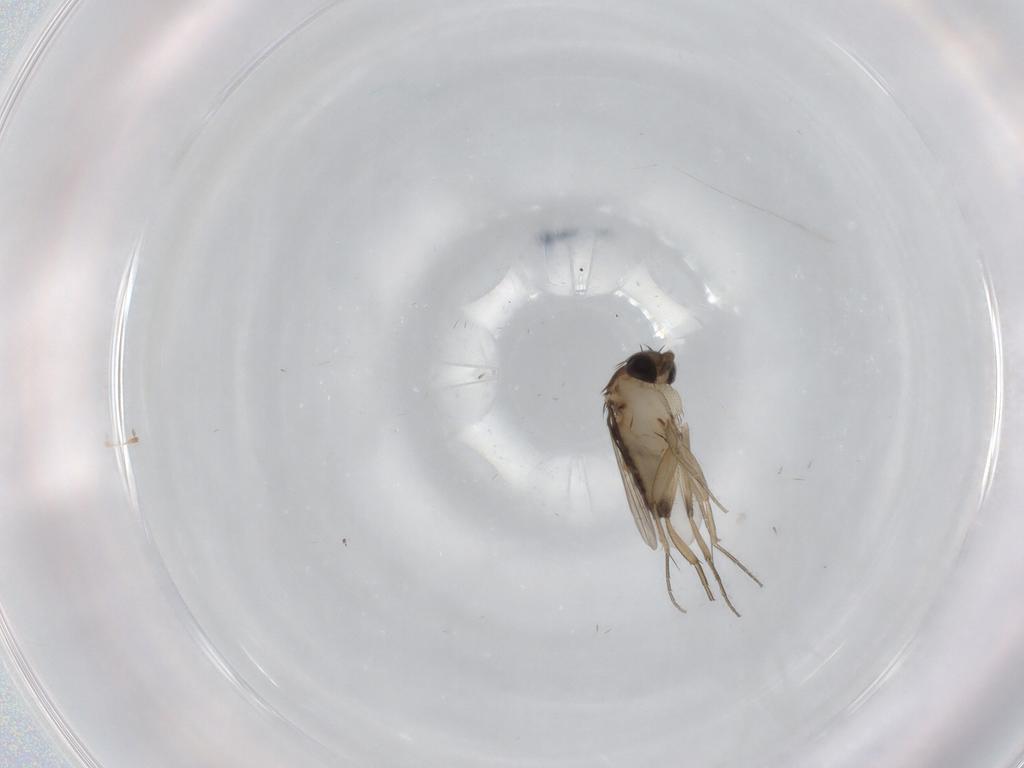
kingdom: Animalia
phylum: Arthropoda
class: Insecta
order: Diptera
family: Phoridae
